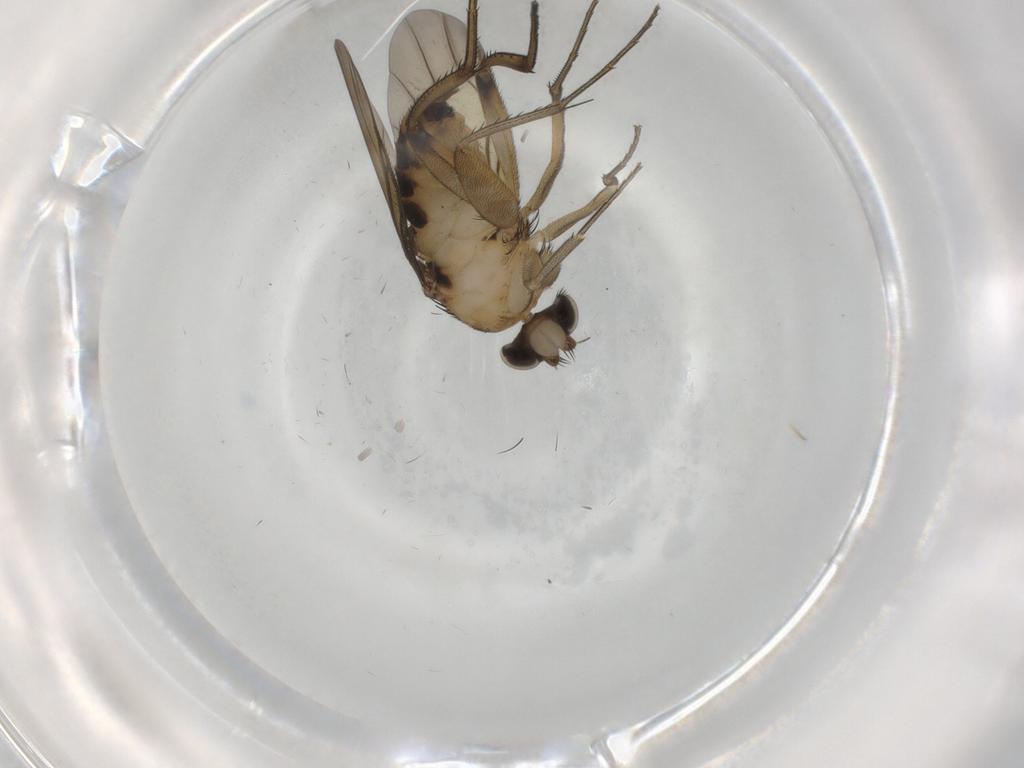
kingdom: Animalia
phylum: Arthropoda
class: Insecta
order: Diptera
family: Phoridae
